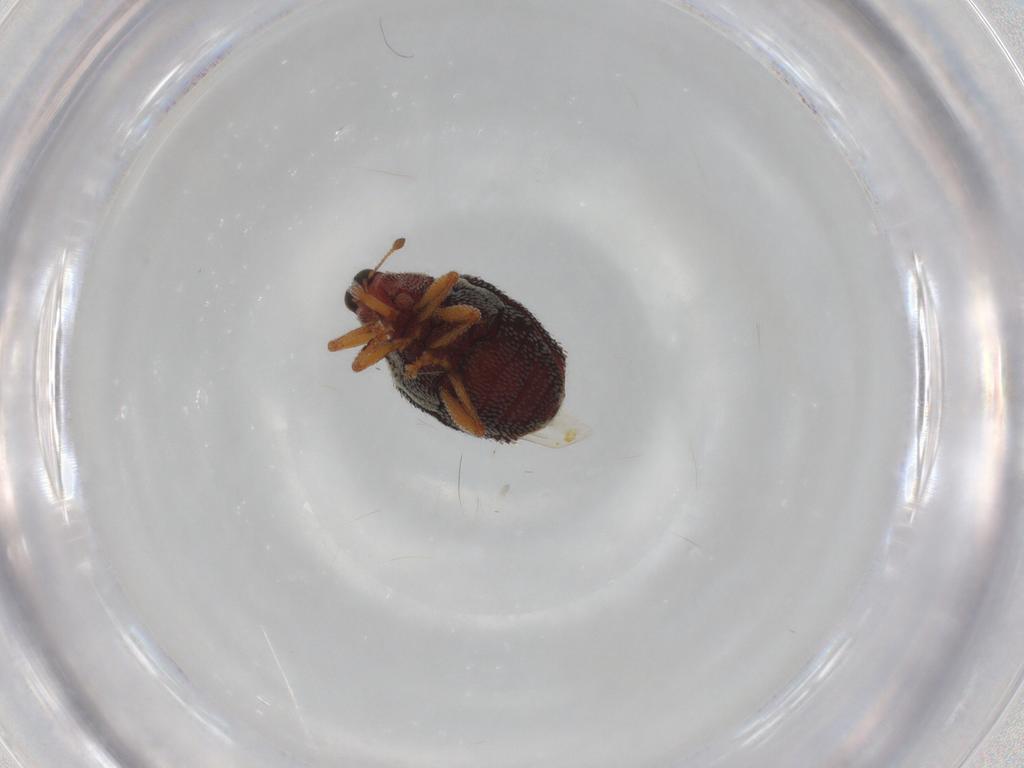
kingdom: Animalia
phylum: Arthropoda
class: Insecta
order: Coleoptera
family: Curculionidae
